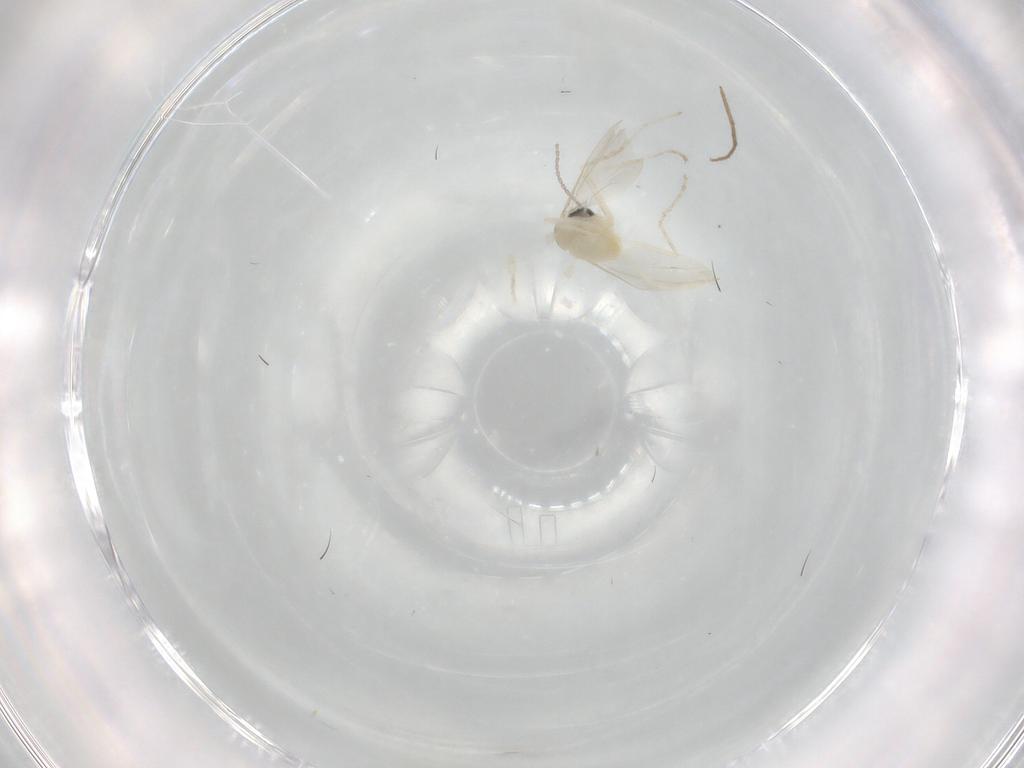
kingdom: Animalia
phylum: Arthropoda
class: Insecta
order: Diptera
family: Cecidomyiidae
